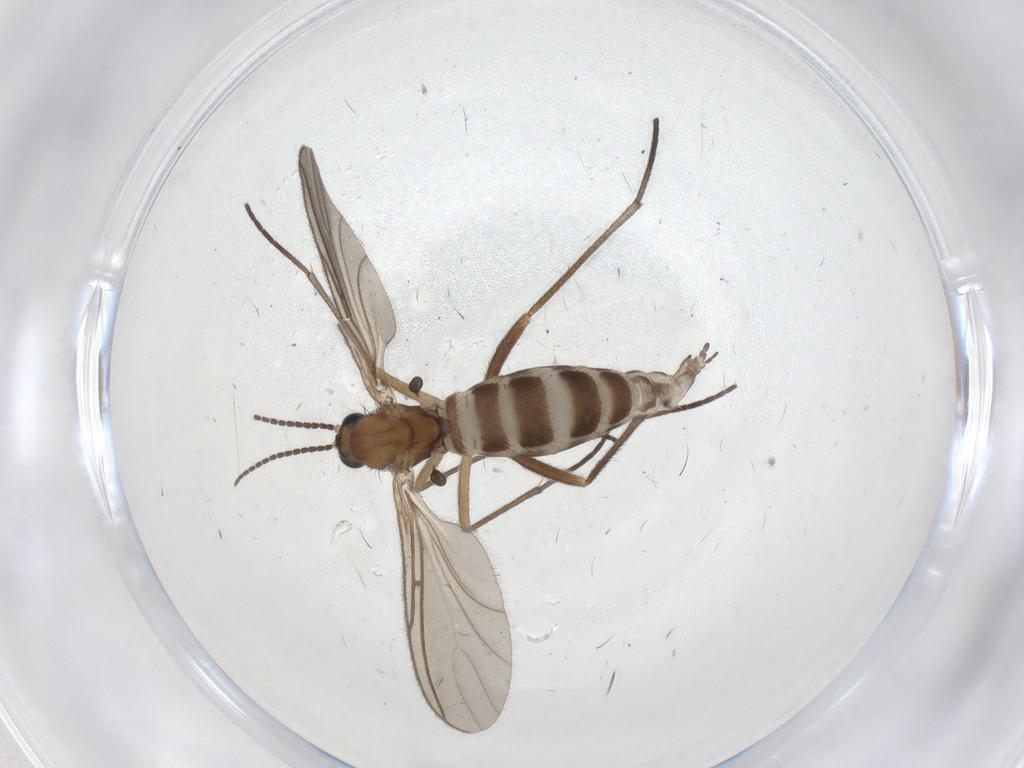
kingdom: Animalia
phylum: Arthropoda
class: Insecta
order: Diptera
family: Sciaridae
